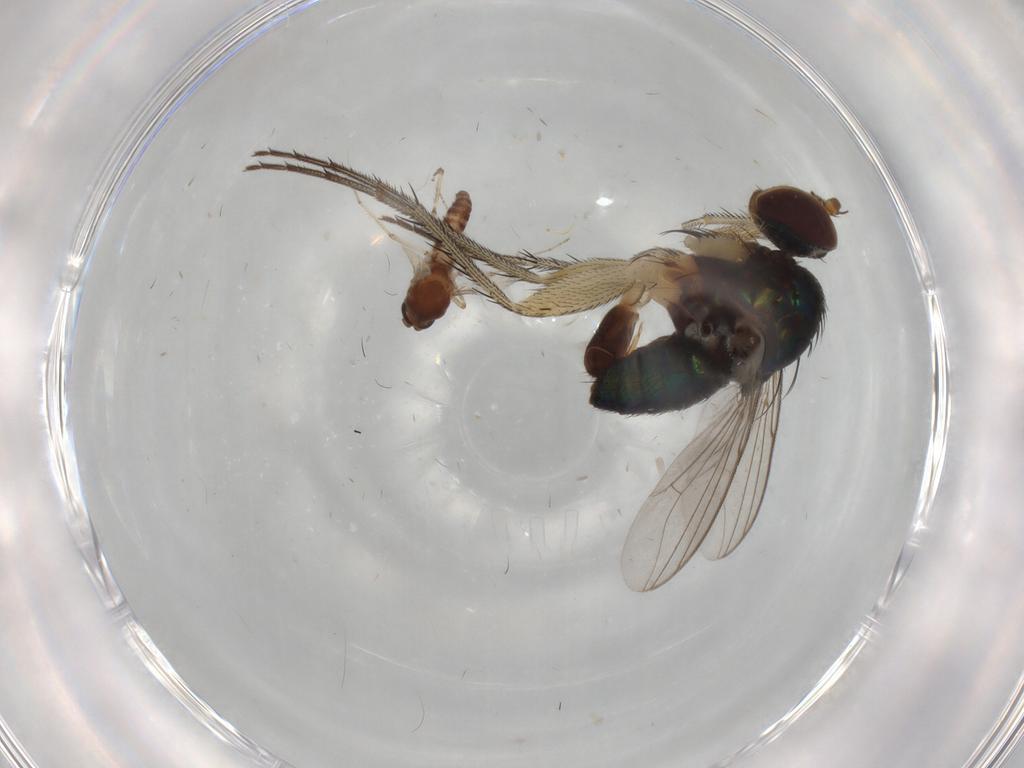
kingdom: Animalia
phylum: Arthropoda
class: Insecta
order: Diptera
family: Dolichopodidae
